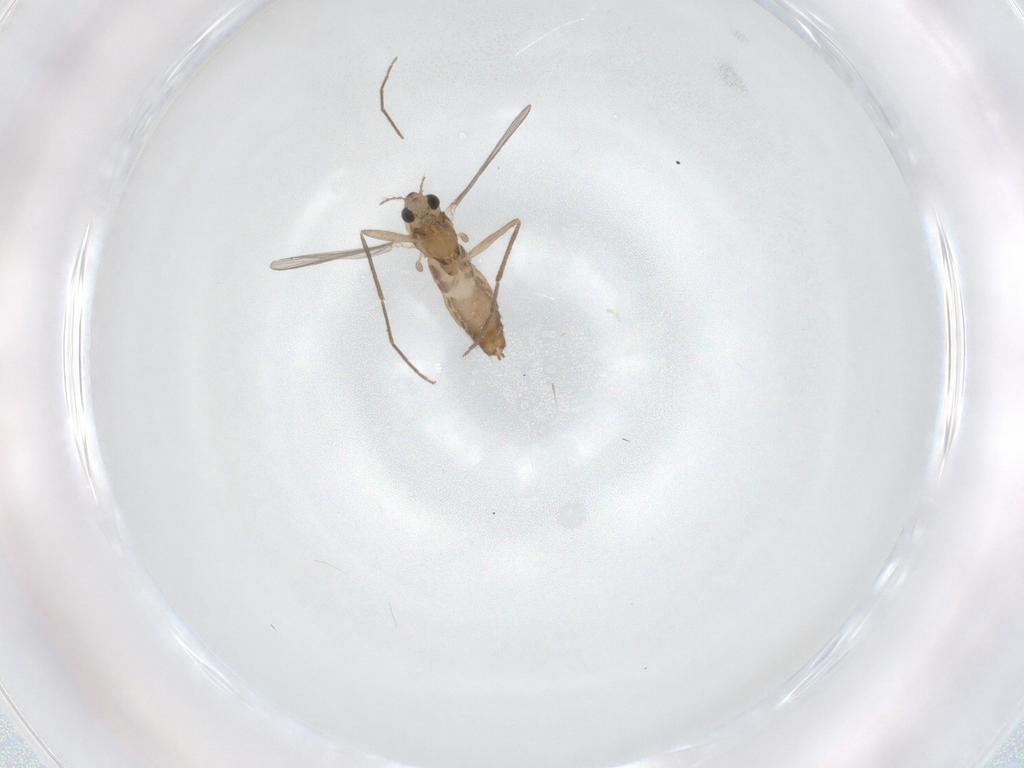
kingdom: Animalia
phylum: Arthropoda
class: Insecta
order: Diptera
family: Chironomidae
